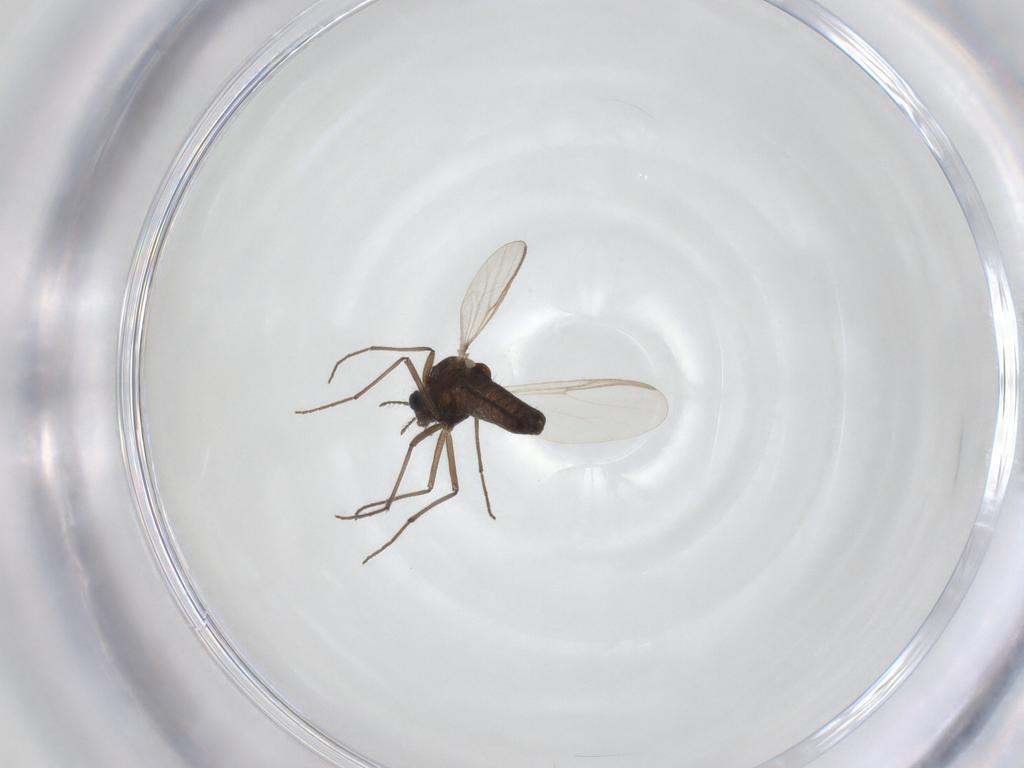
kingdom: Animalia
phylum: Arthropoda
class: Insecta
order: Diptera
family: Chironomidae
